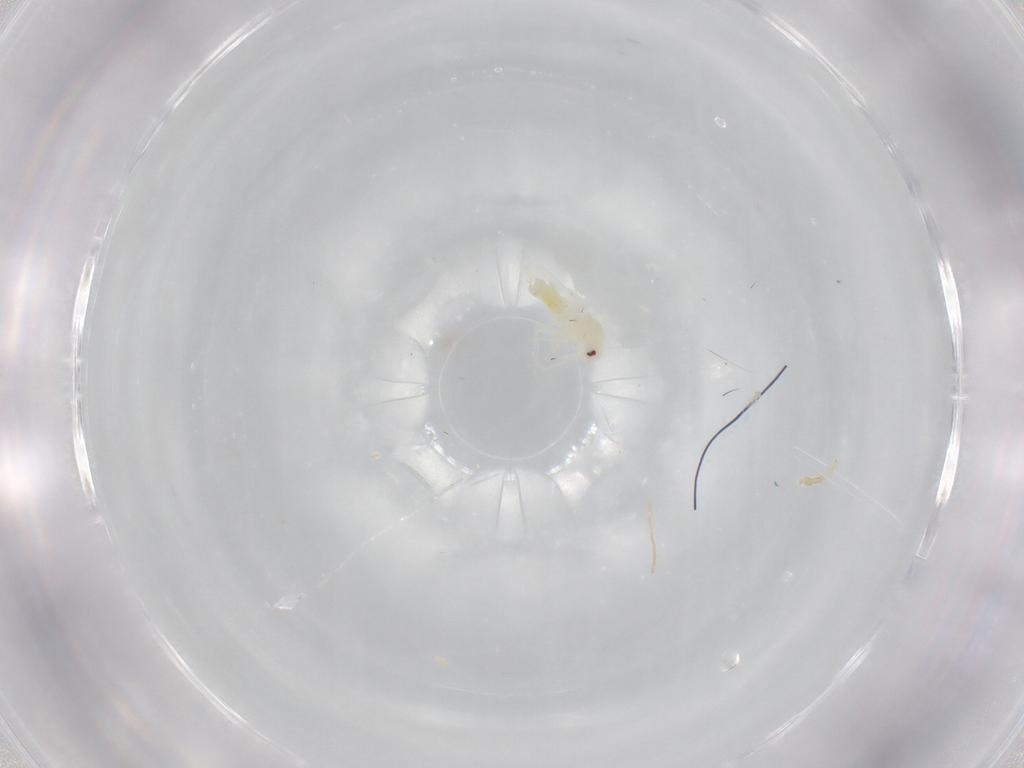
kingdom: Animalia
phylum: Arthropoda
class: Insecta
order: Hemiptera
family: Aleyrodidae
